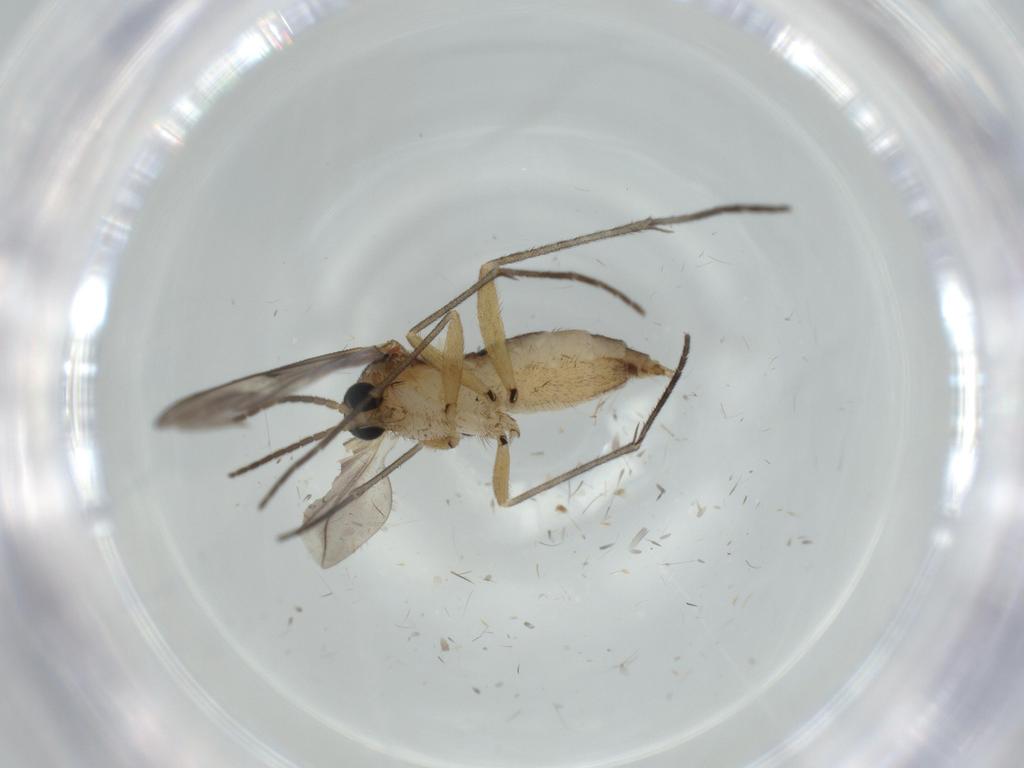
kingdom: Animalia
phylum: Arthropoda
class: Insecta
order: Diptera
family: Sciaridae
